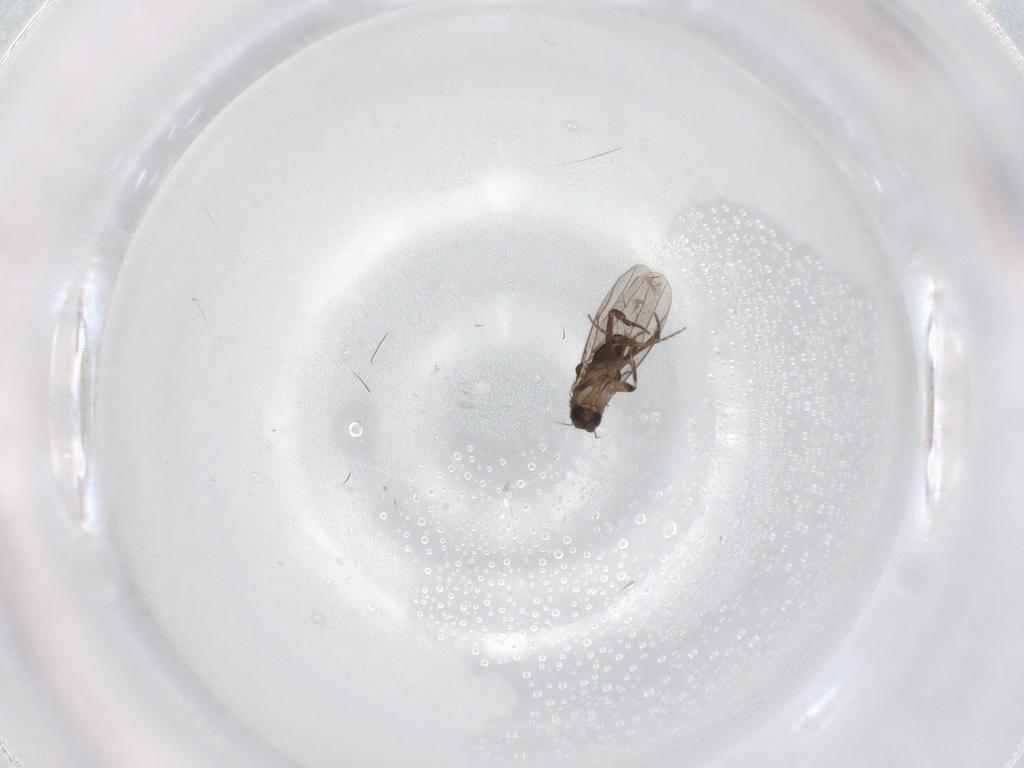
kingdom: Animalia
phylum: Arthropoda
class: Insecta
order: Diptera
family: Phoridae
